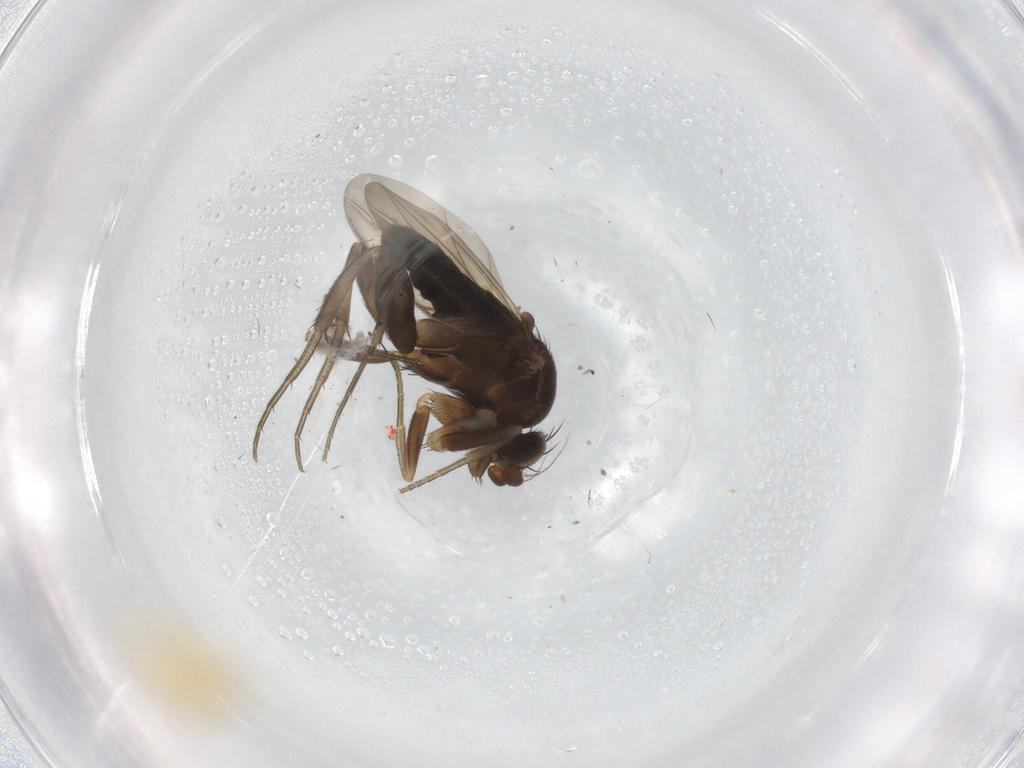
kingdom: Animalia
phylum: Arthropoda
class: Insecta
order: Diptera
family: Phoridae
